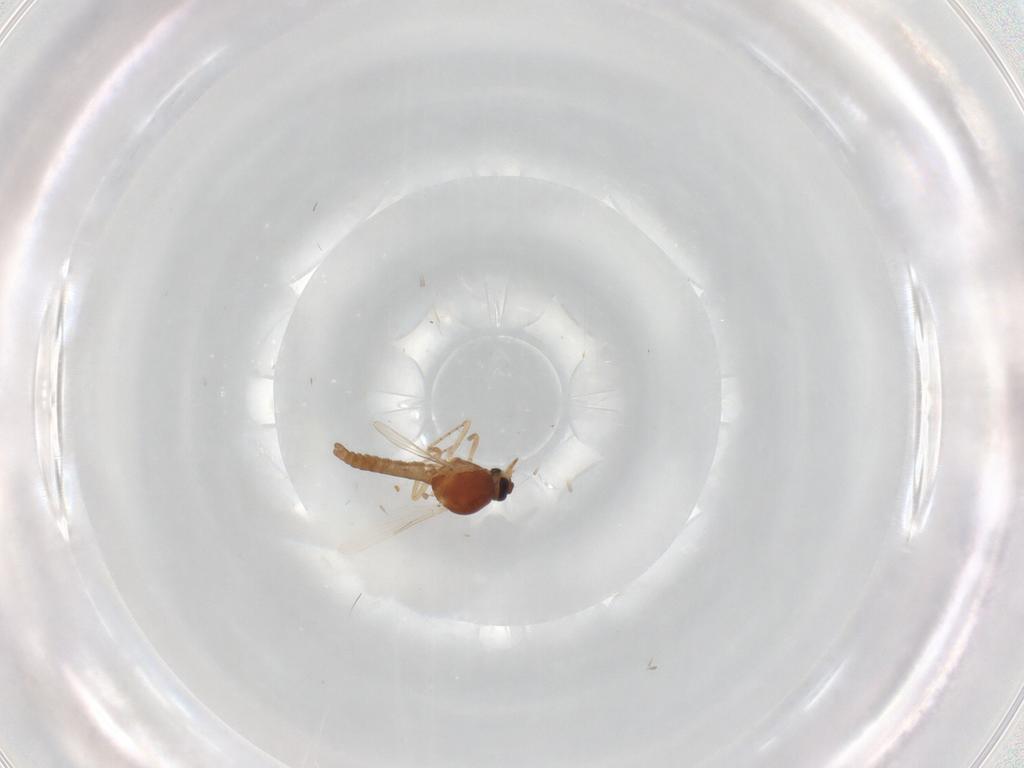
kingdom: Animalia
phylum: Arthropoda
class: Insecta
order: Diptera
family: Ceratopogonidae
